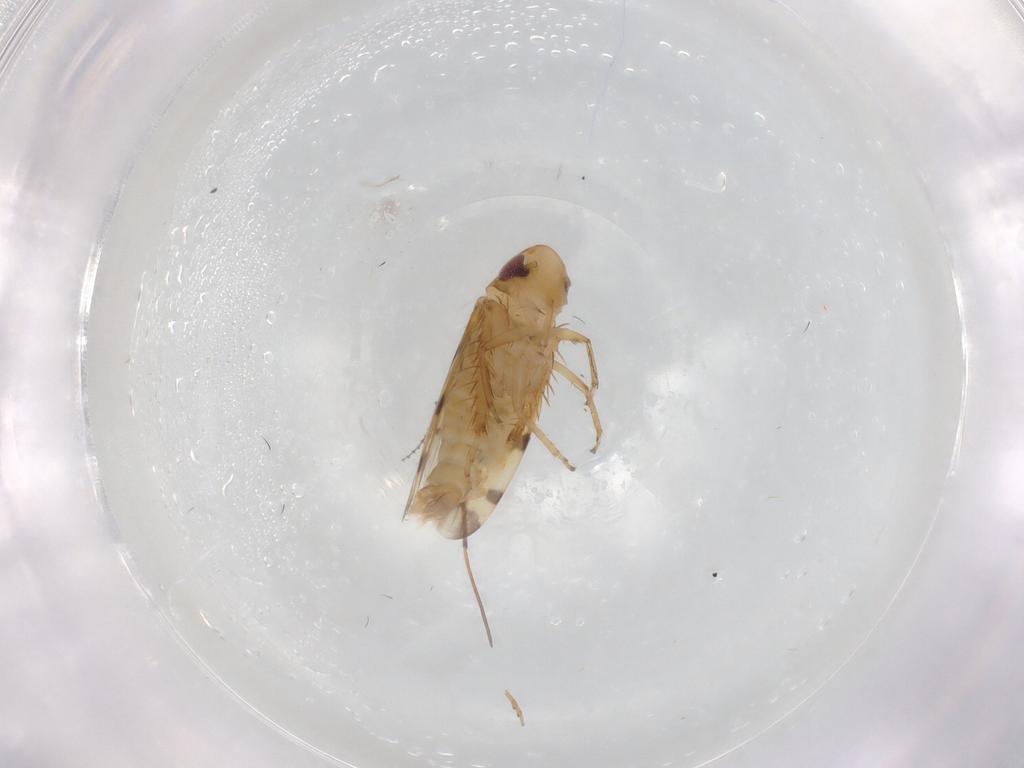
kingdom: Animalia
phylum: Arthropoda
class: Insecta
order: Hemiptera
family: Cicadellidae
